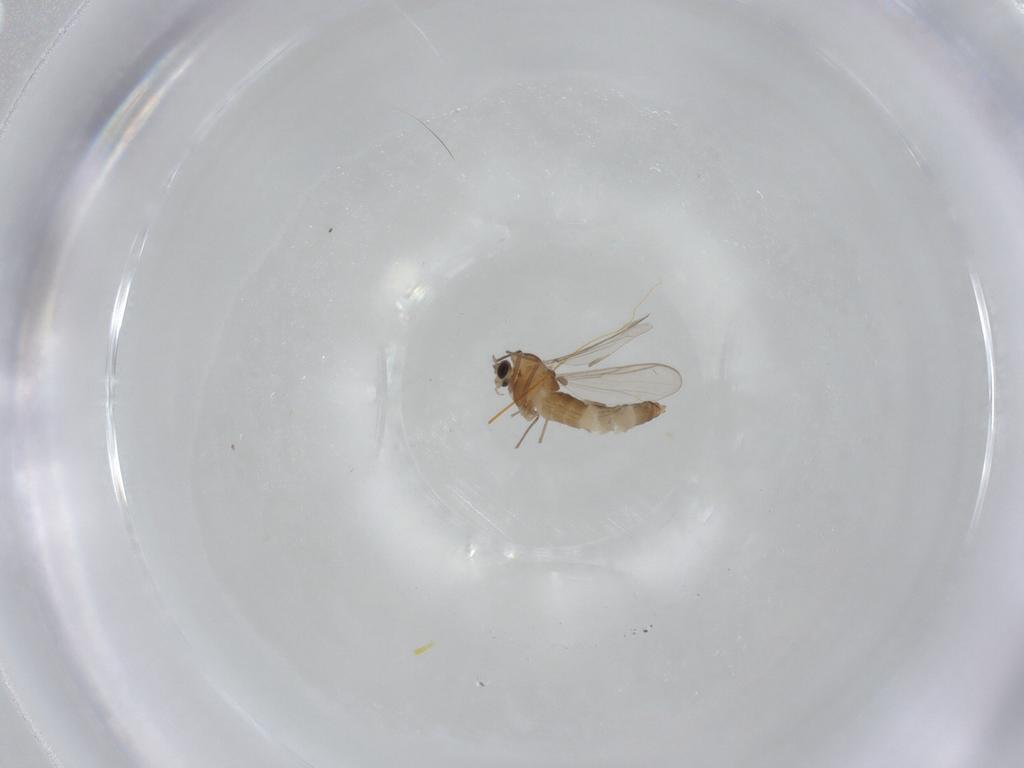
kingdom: Animalia
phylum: Arthropoda
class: Insecta
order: Diptera
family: Chironomidae
